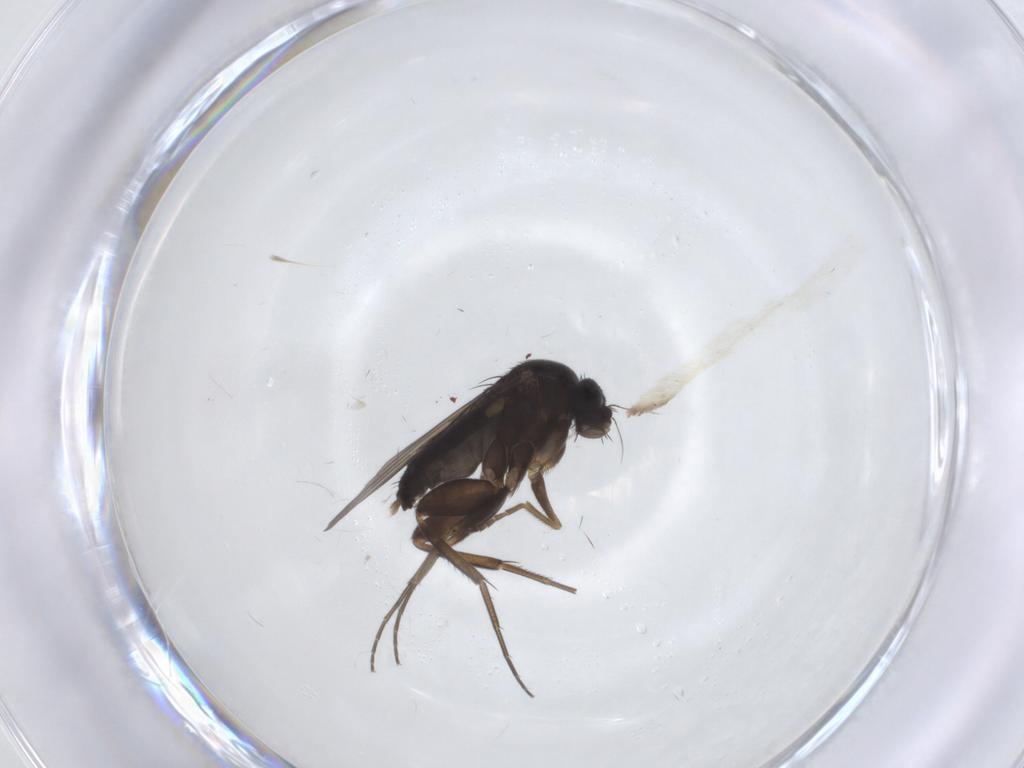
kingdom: Animalia
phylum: Arthropoda
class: Insecta
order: Diptera
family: Phoridae
